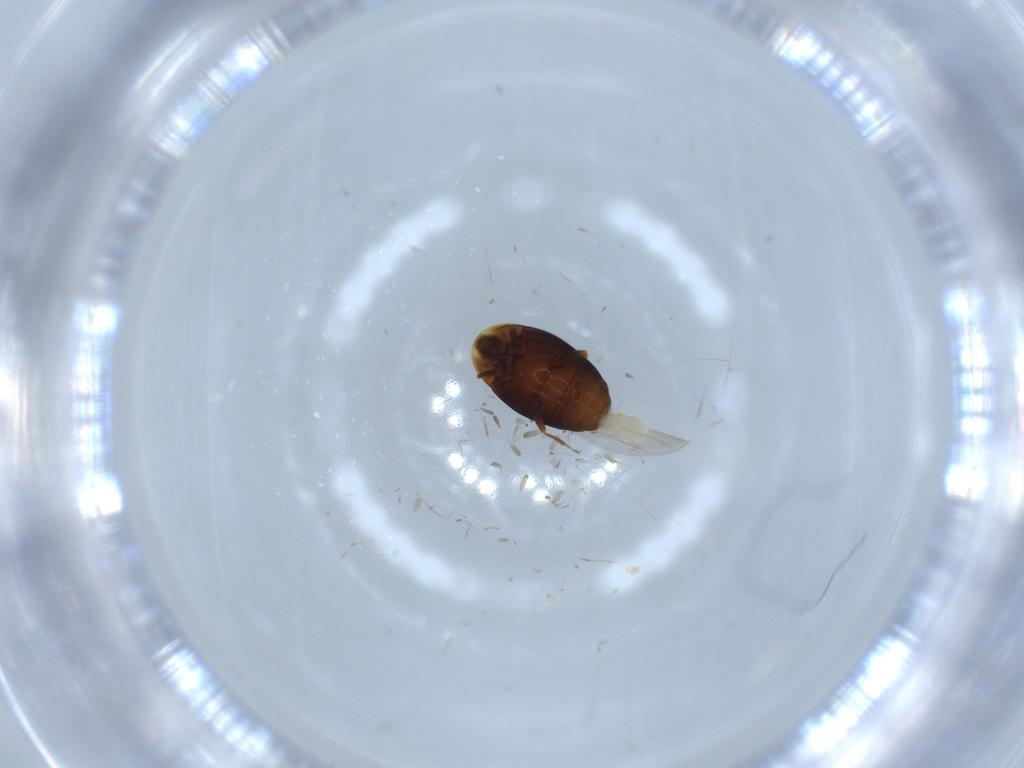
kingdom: Animalia
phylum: Arthropoda
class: Insecta
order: Coleoptera
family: Corylophidae
